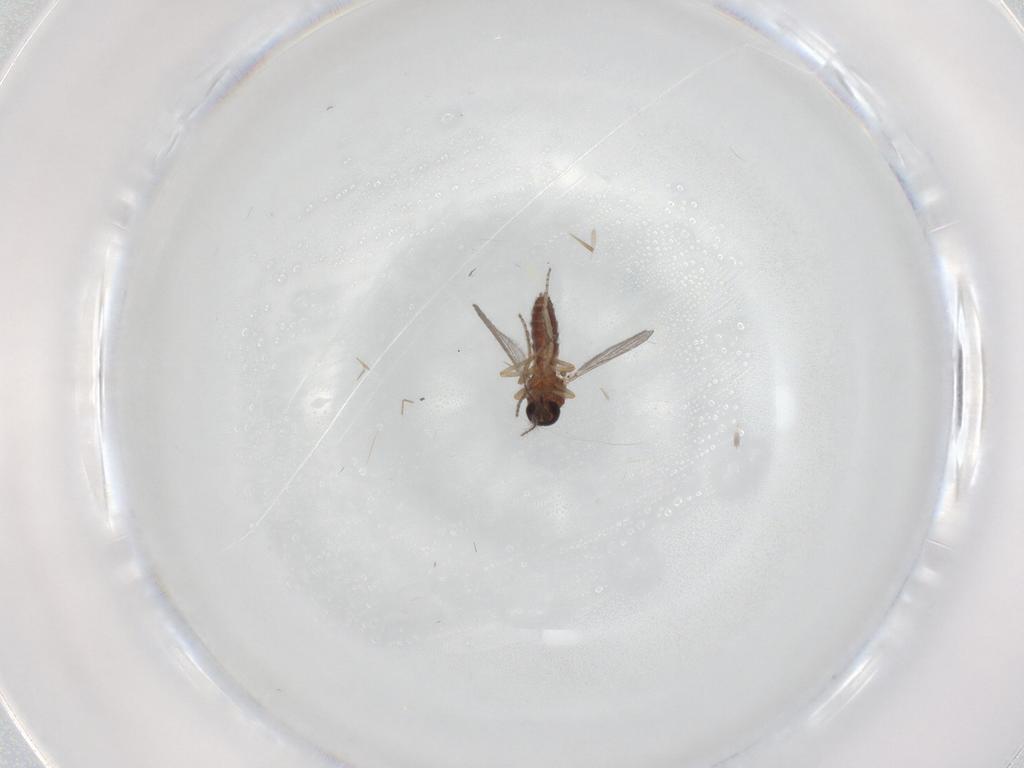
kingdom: Animalia
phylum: Arthropoda
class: Insecta
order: Diptera
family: Ceratopogonidae
